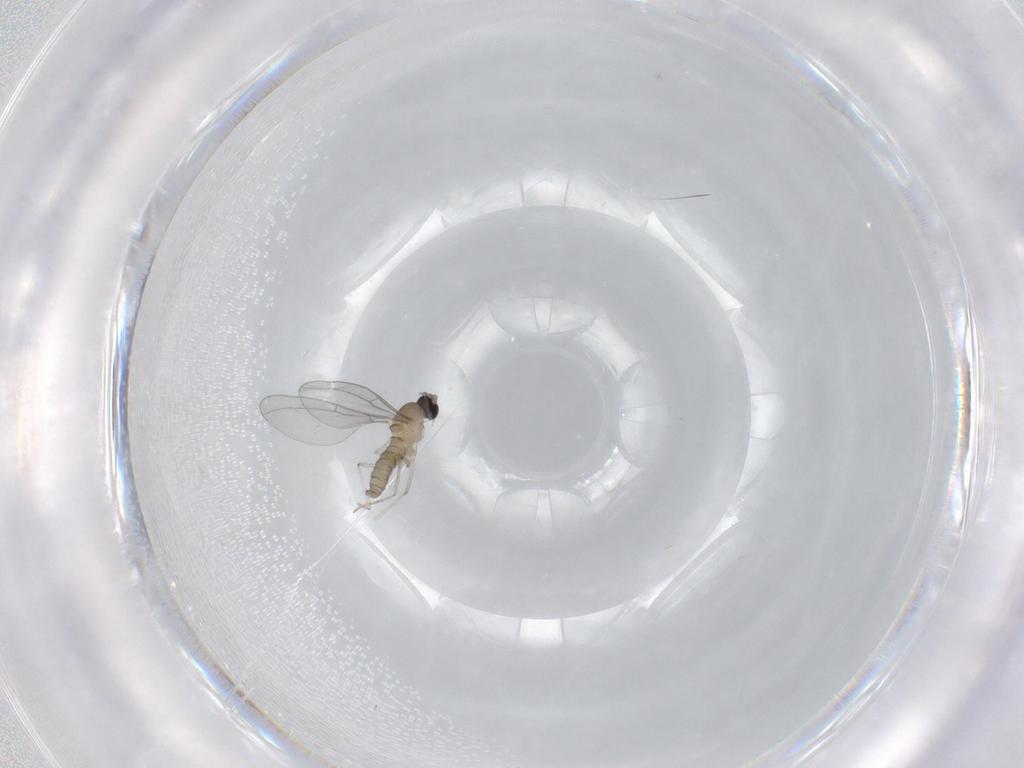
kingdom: Animalia
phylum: Arthropoda
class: Insecta
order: Diptera
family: Cecidomyiidae
